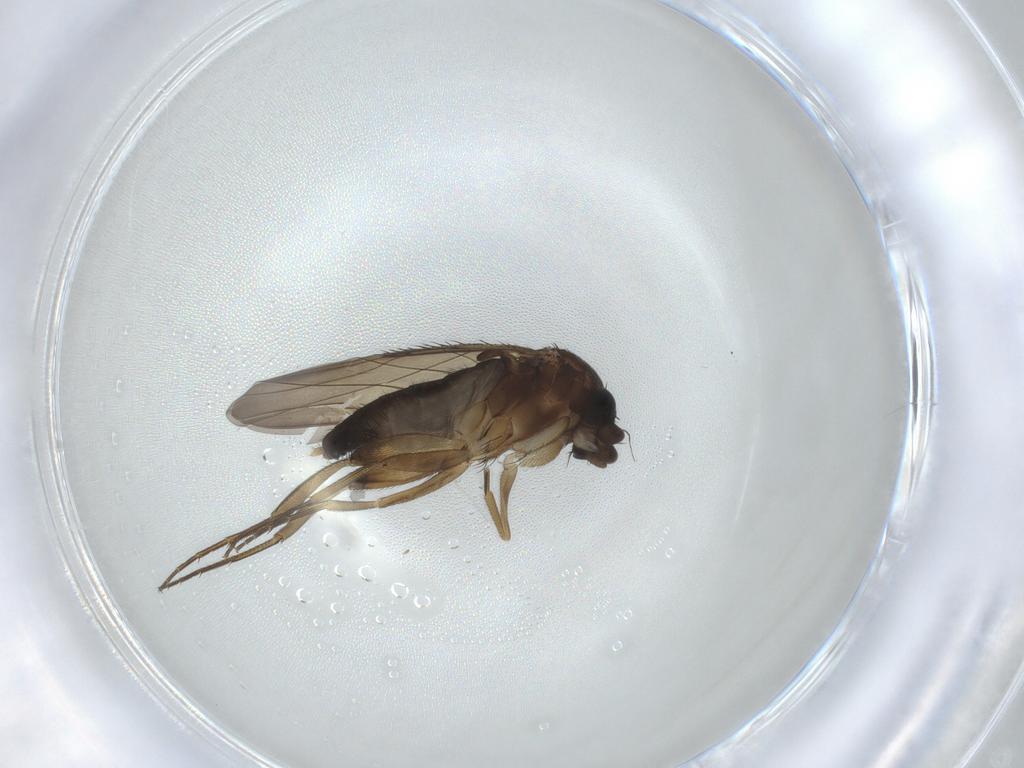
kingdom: Animalia
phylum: Arthropoda
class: Insecta
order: Diptera
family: Phoridae
